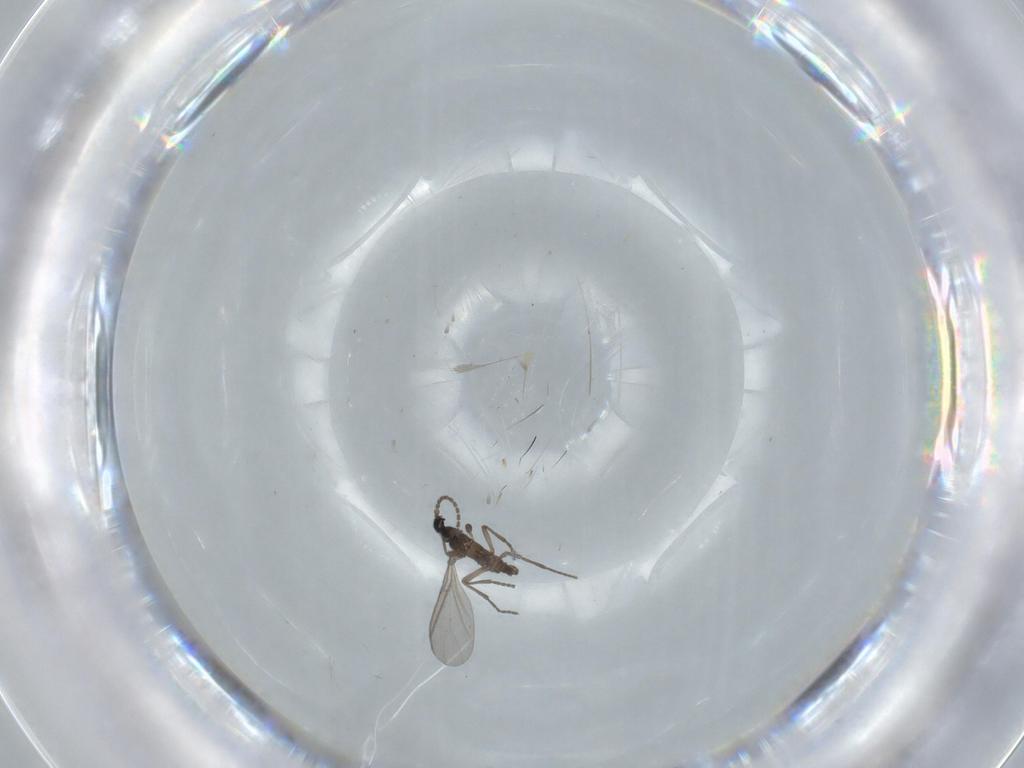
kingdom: Animalia
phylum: Arthropoda
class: Insecta
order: Diptera
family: Sciaridae
